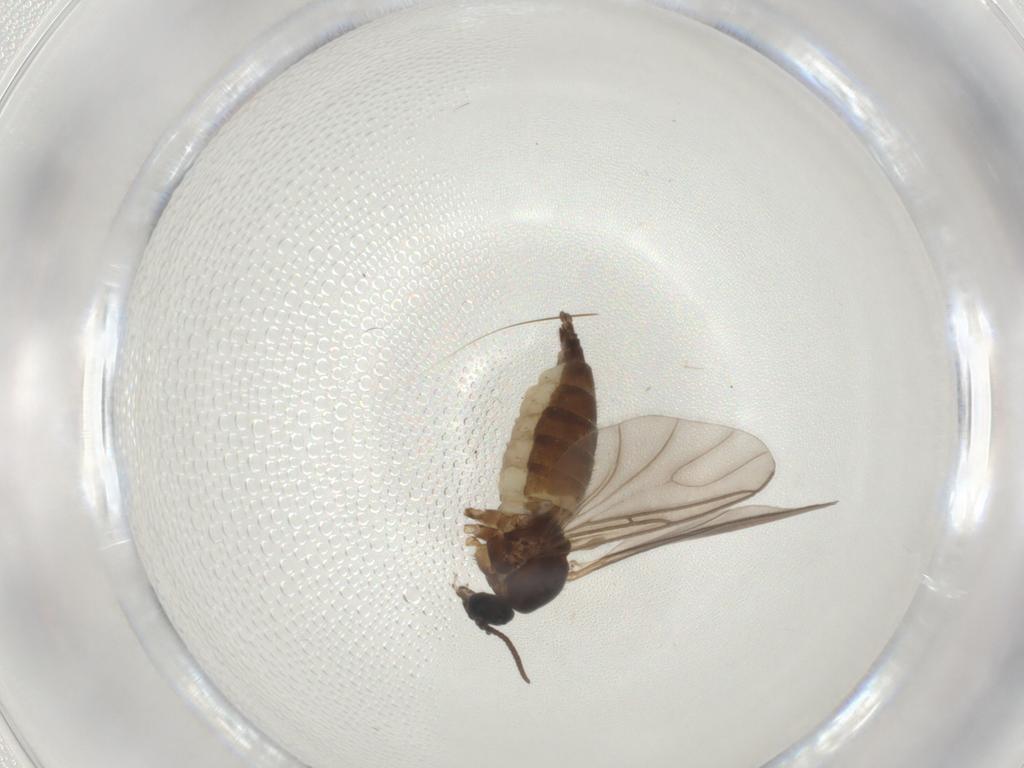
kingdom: Animalia
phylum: Arthropoda
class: Insecta
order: Diptera
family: Sciaridae
